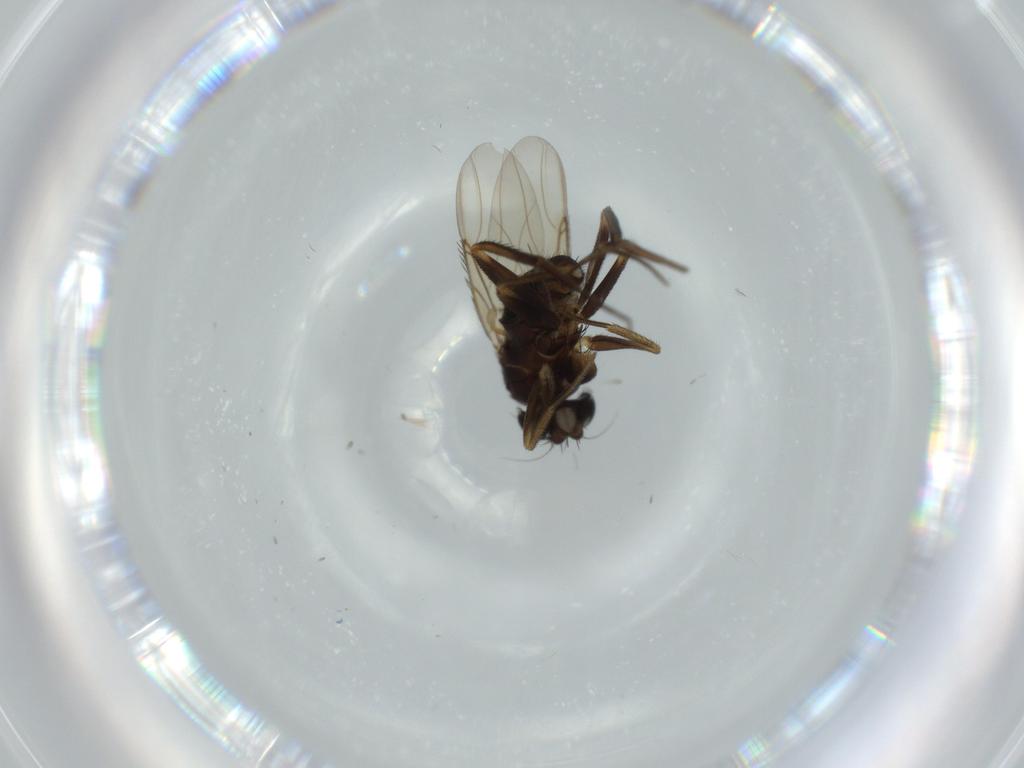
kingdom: Animalia
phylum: Arthropoda
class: Insecta
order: Diptera
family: Phoridae
